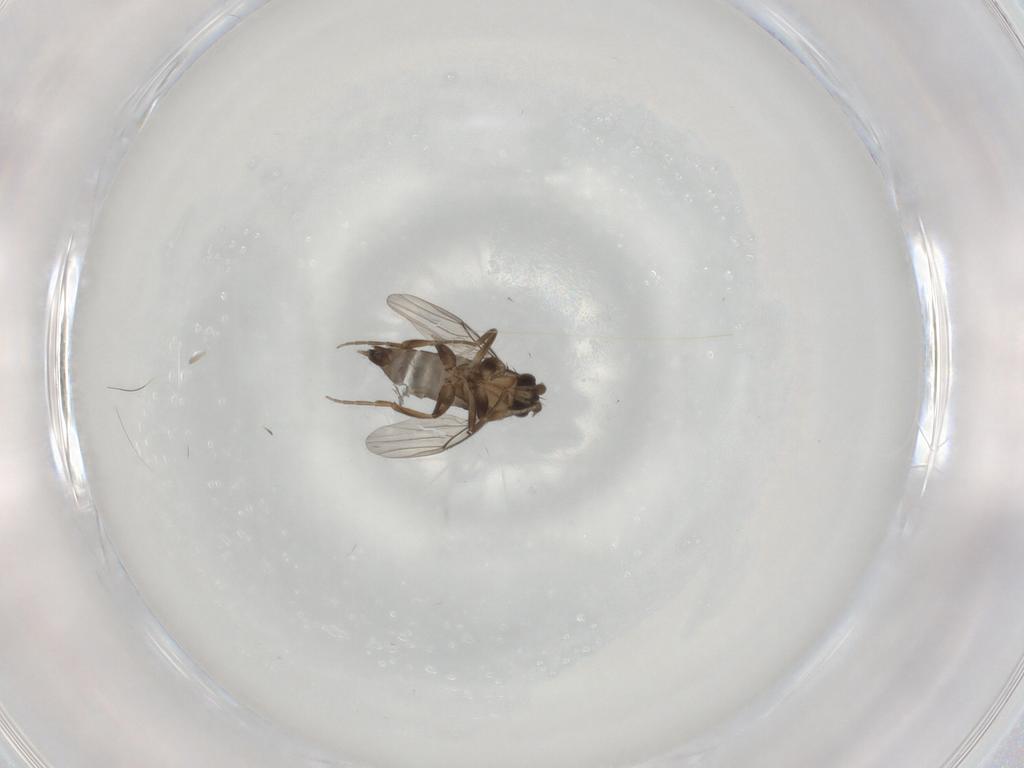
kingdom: Animalia
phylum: Arthropoda
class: Insecta
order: Diptera
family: Phoridae
